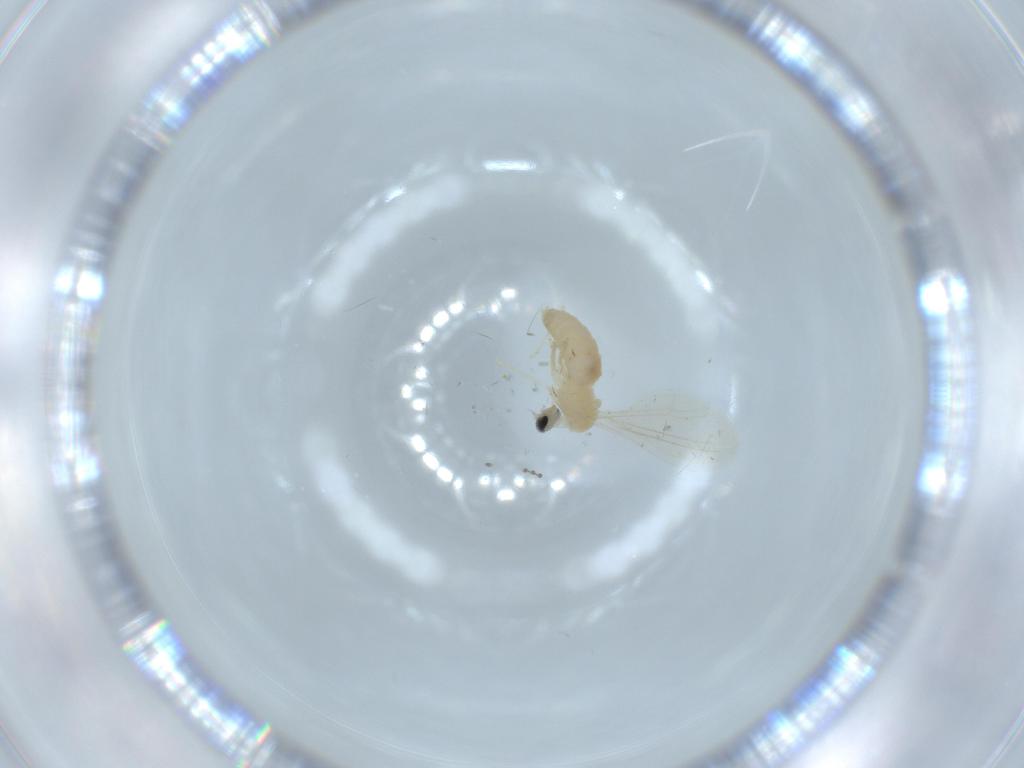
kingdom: Animalia
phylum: Arthropoda
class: Insecta
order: Diptera
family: Cecidomyiidae
